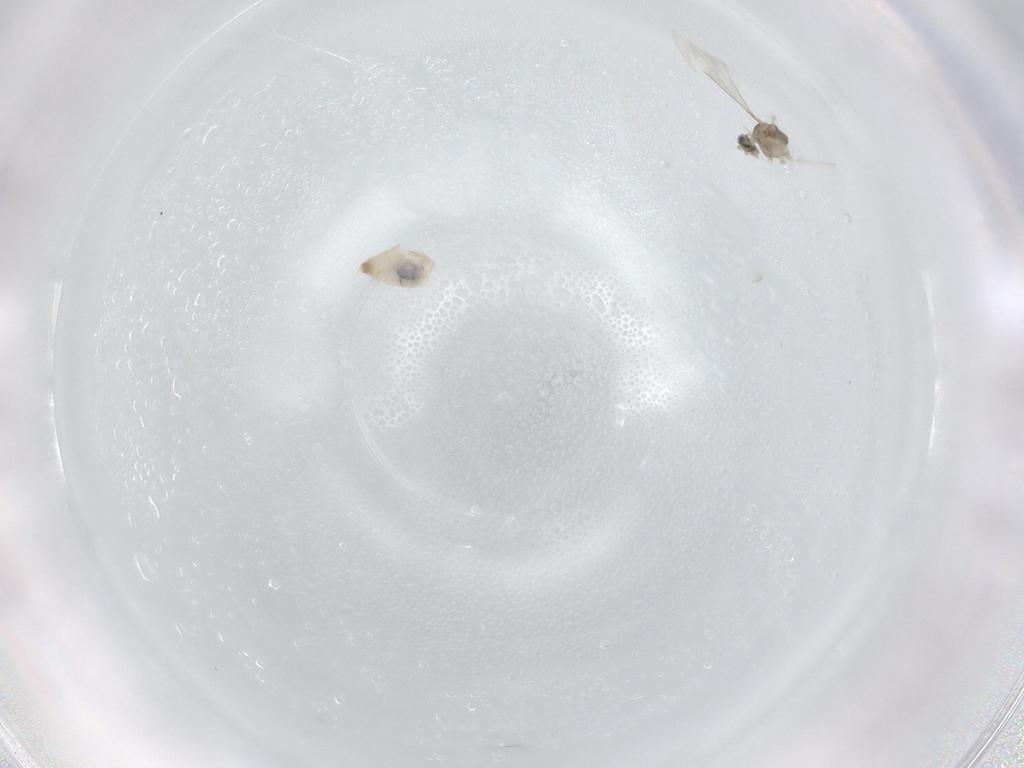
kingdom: Animalia
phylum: Arthropoda
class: Insecta
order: Diptera
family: Cecidomyiidae
